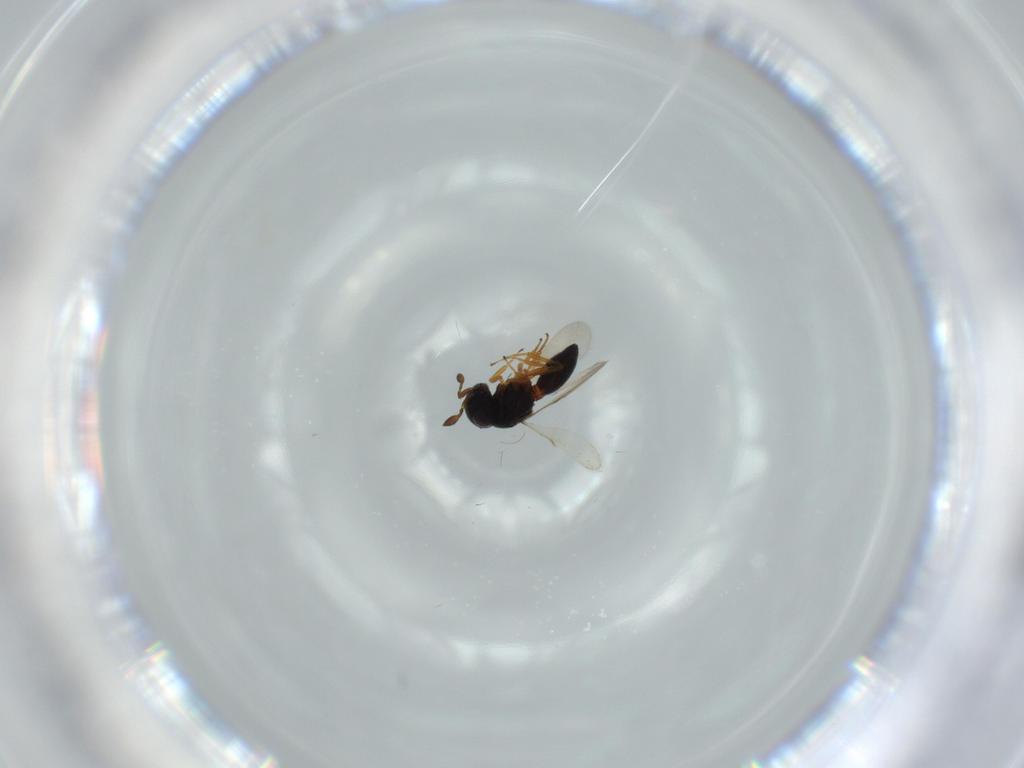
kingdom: Animalia
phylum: Arthropoda
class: Insecta
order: Hymenoptera
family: Scelionidae
